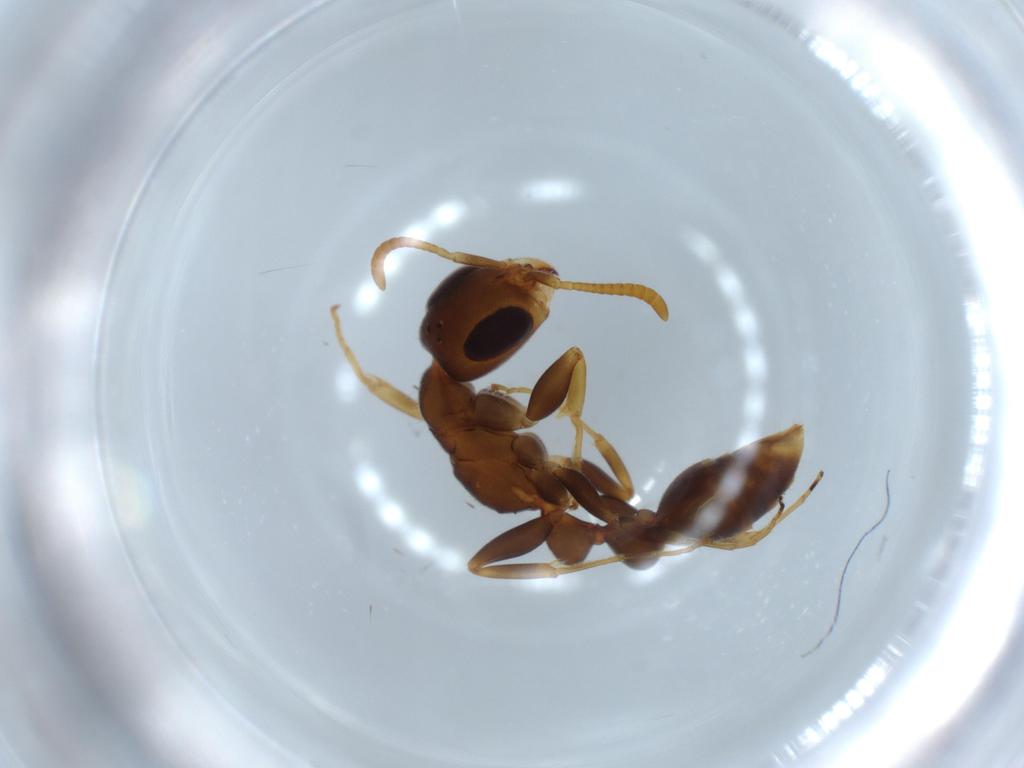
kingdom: Animalia
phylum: Arthropoda
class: Insecta
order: Hymenoptera
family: Formicidae
